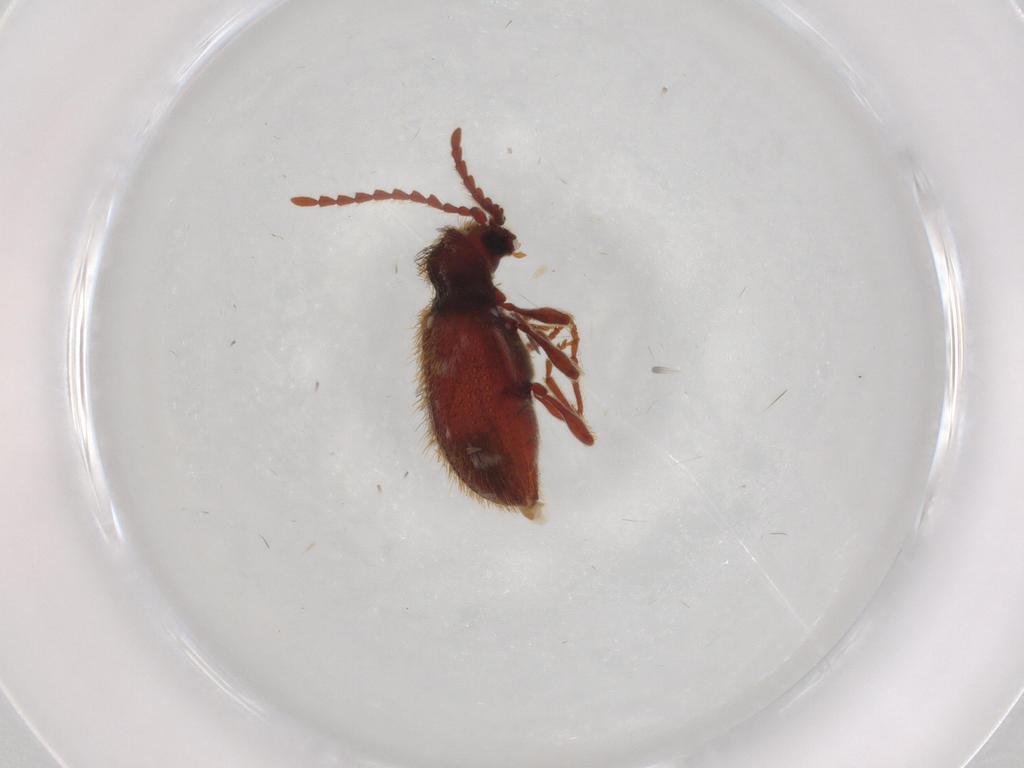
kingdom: Animalia
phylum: Arthropoda
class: Insecta
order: Coleoptera
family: Ptinidae
